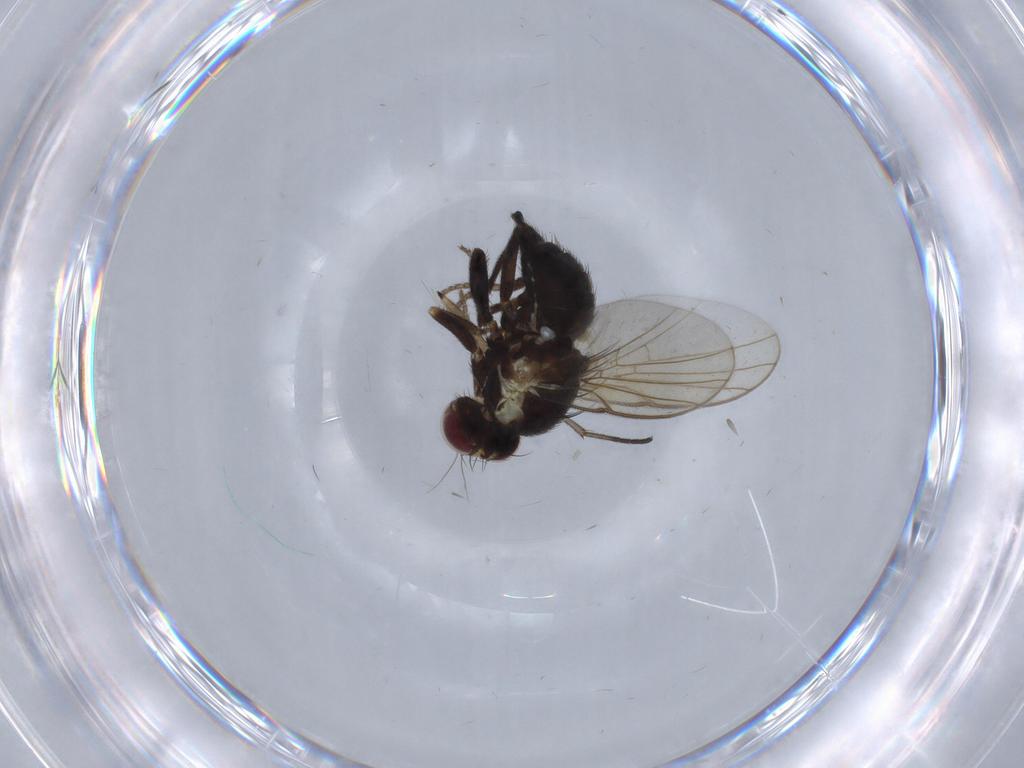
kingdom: Animalia
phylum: Arthropoda
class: Insecta
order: Diptera
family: Agromyzidae
